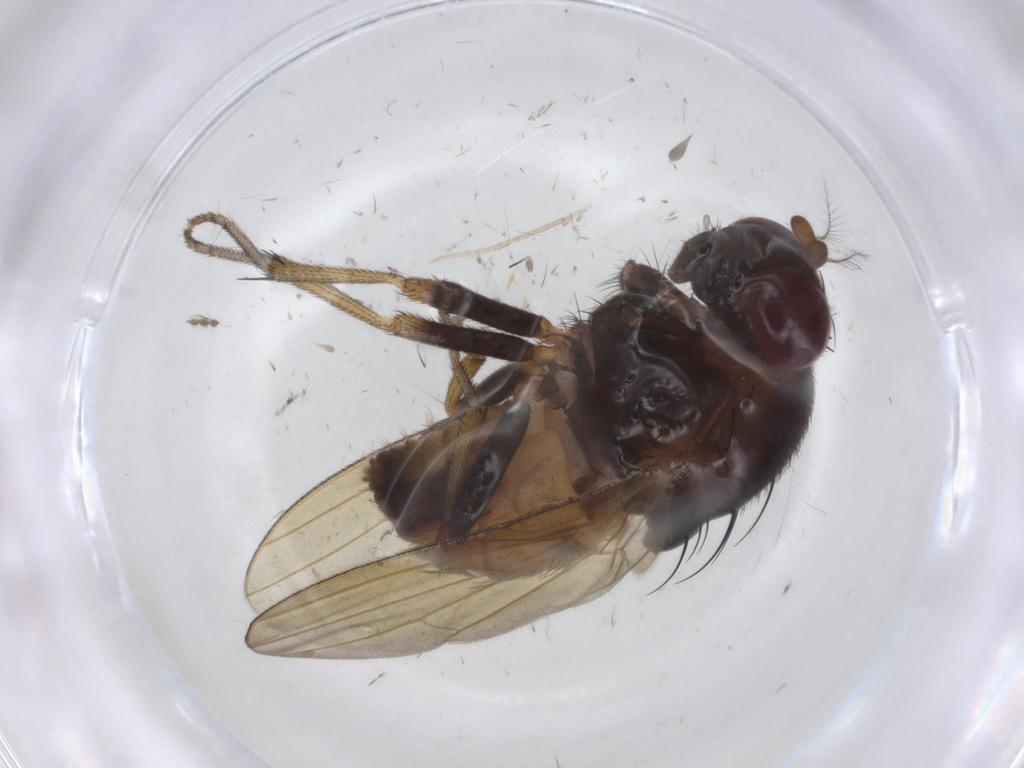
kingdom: Animalia
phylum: Arthropoda
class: Insecta
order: Diptera
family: Lauxaniidae
